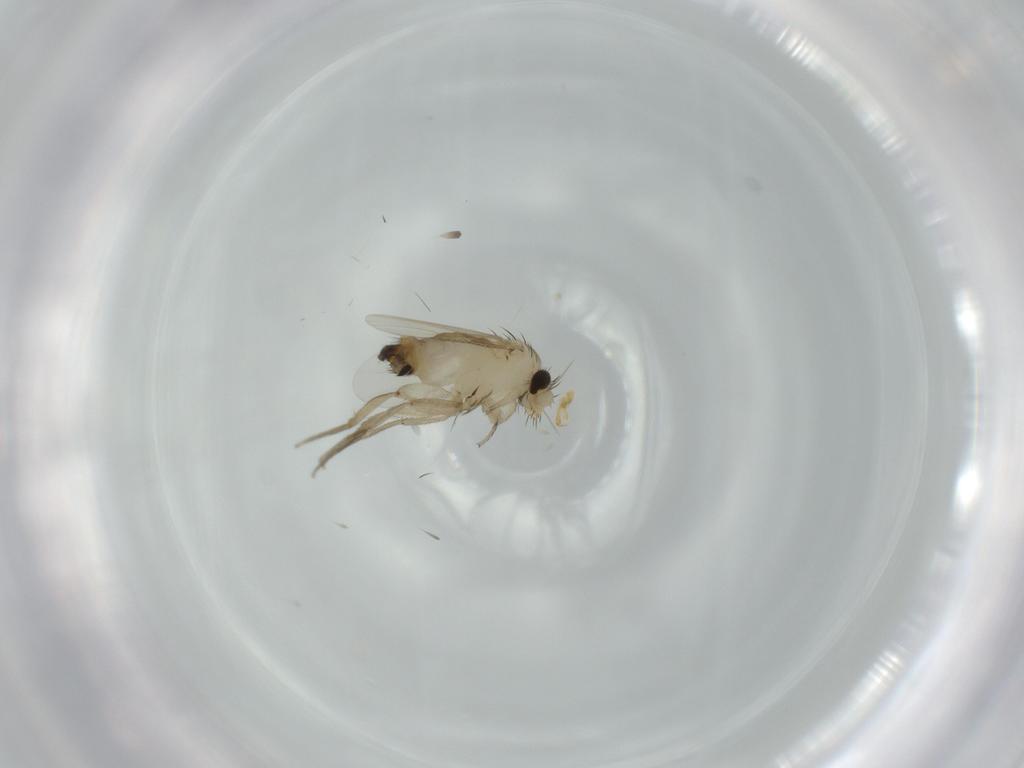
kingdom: Animalia
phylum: Arthropoda
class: Insecta
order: Diptera
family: Phoridae
